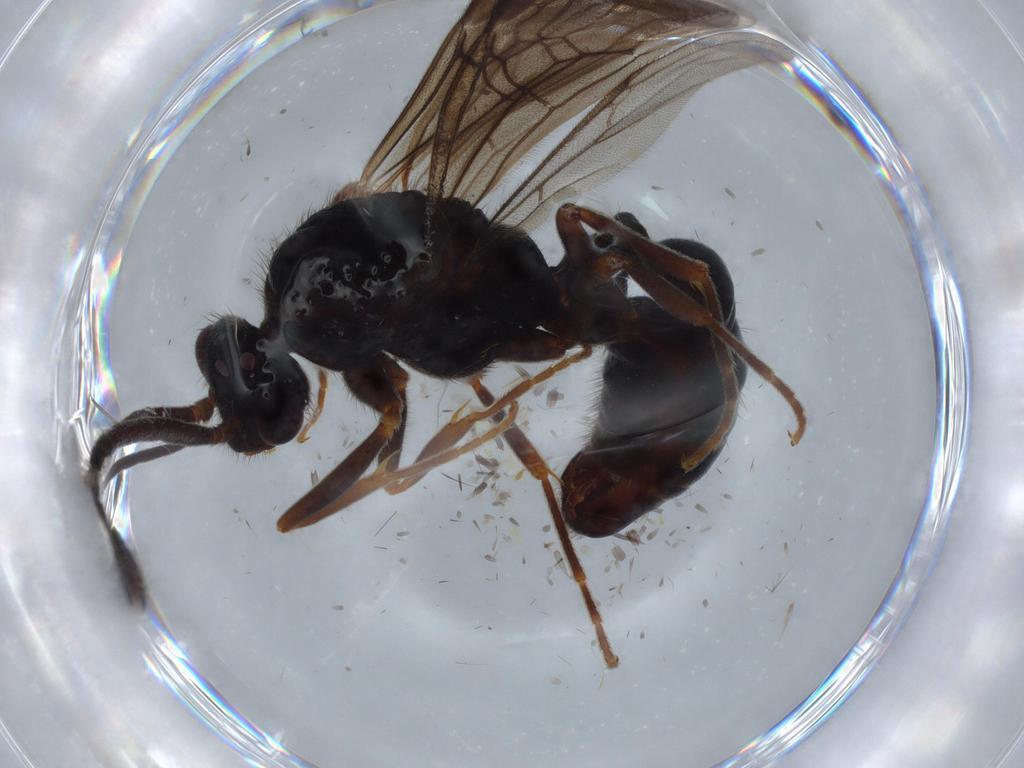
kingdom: Animalia
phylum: Arthropoda
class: Insecta
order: Hymenoptera
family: Formicidae
